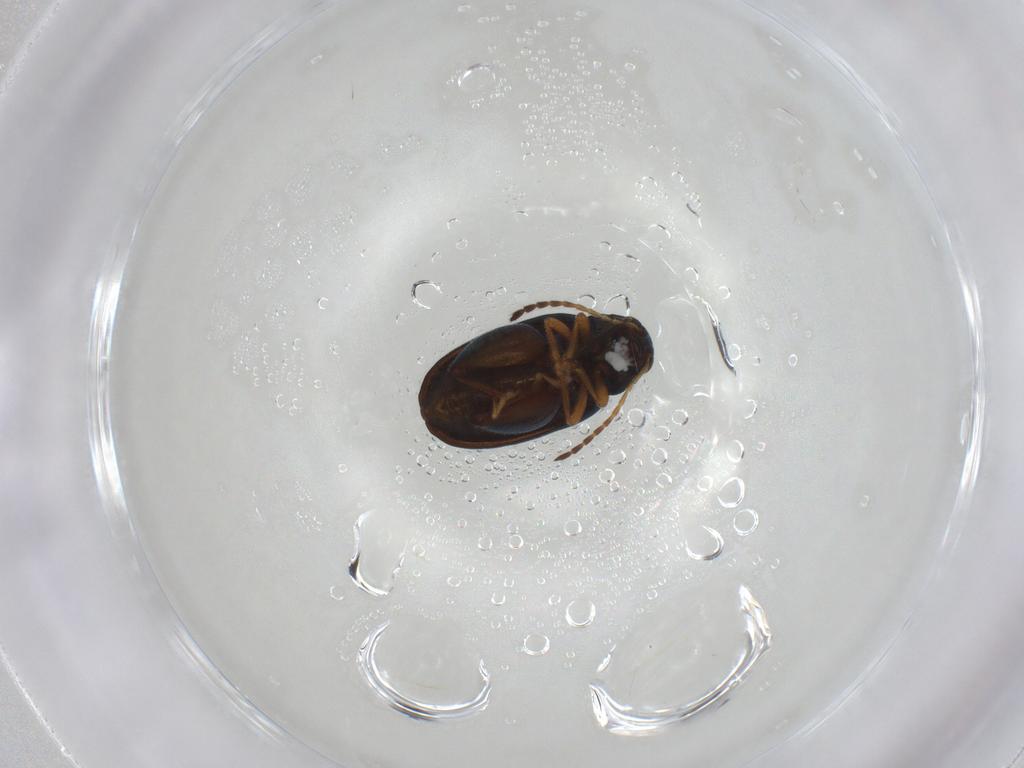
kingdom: Animalia
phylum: Arthropoda
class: Insecta
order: Coleoptera
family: Chrysomelidae
